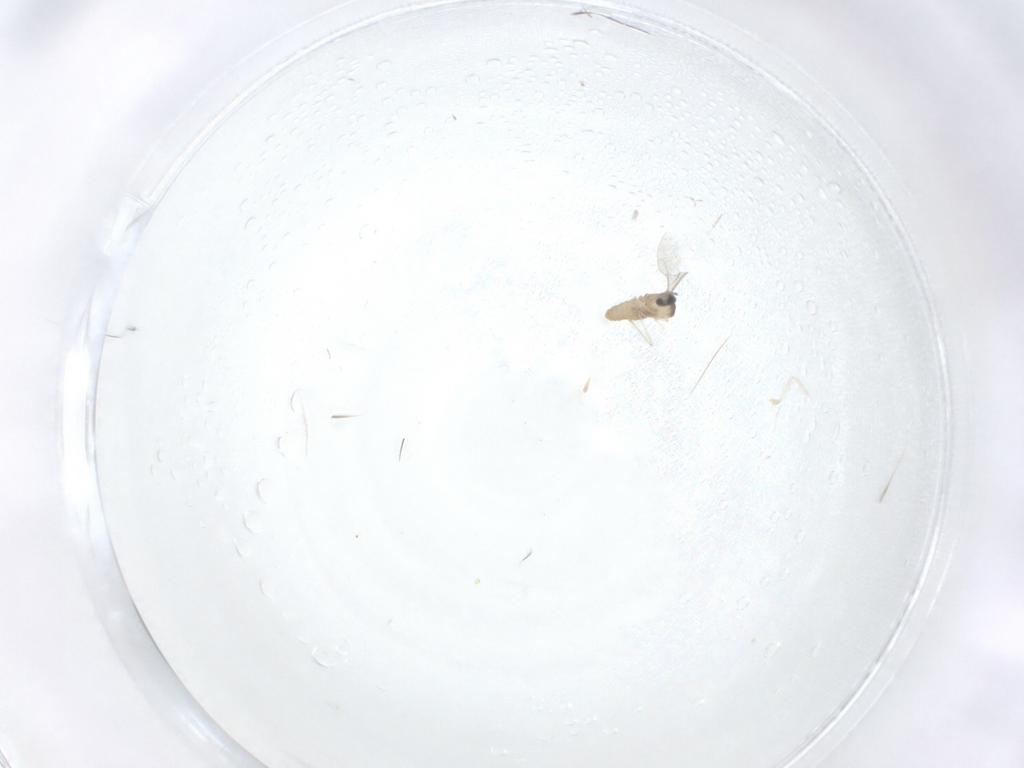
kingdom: Animalia
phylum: Arthropoda
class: Insecta
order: Diptera
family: Cecidomyiidae
